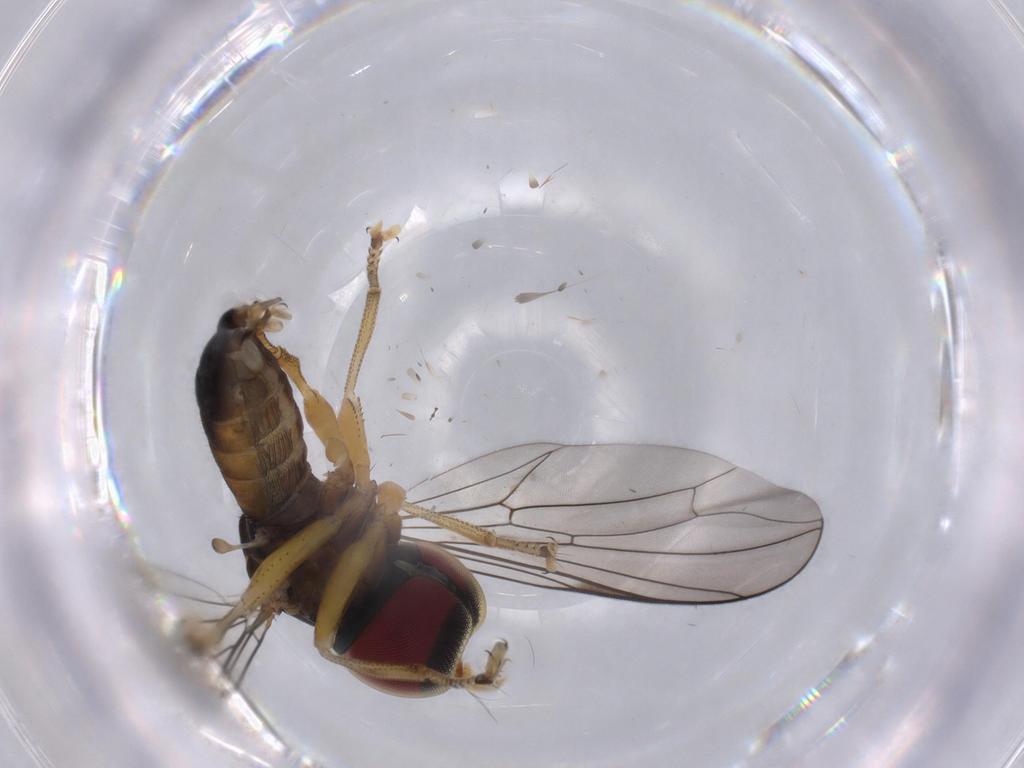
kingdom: Animalia
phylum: Arthropoda
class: Insecta
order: Diptera
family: Pipunculidae
